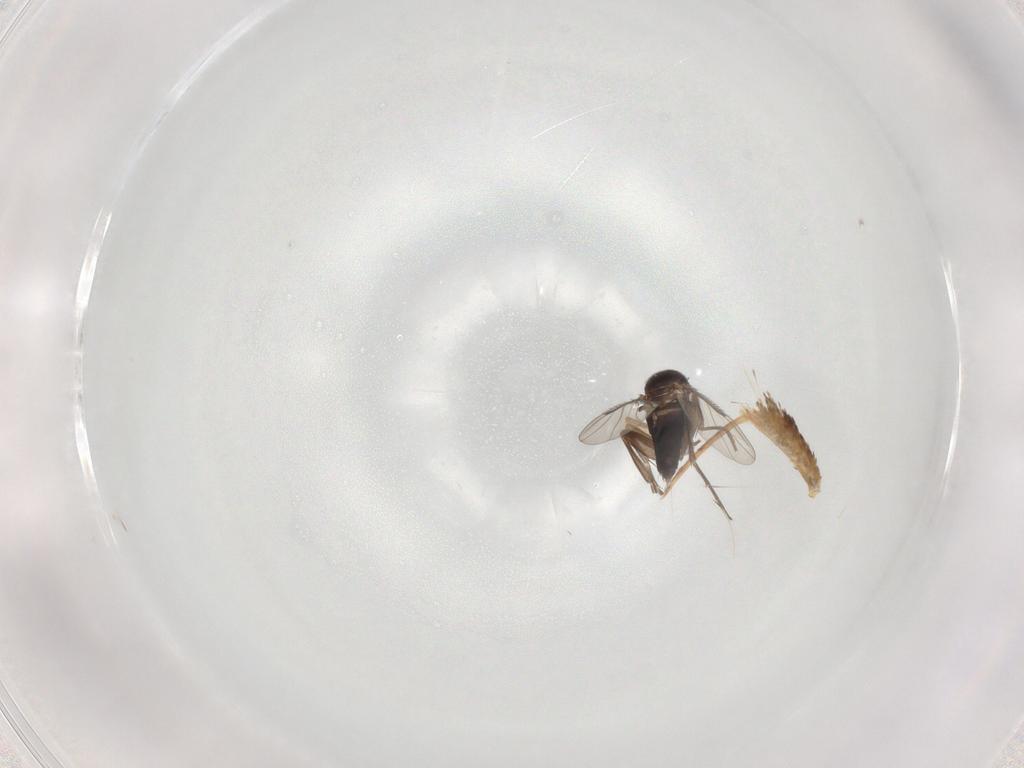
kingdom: Animalia
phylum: Arthropoda
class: Insecta
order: Diptera
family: Phoridae
